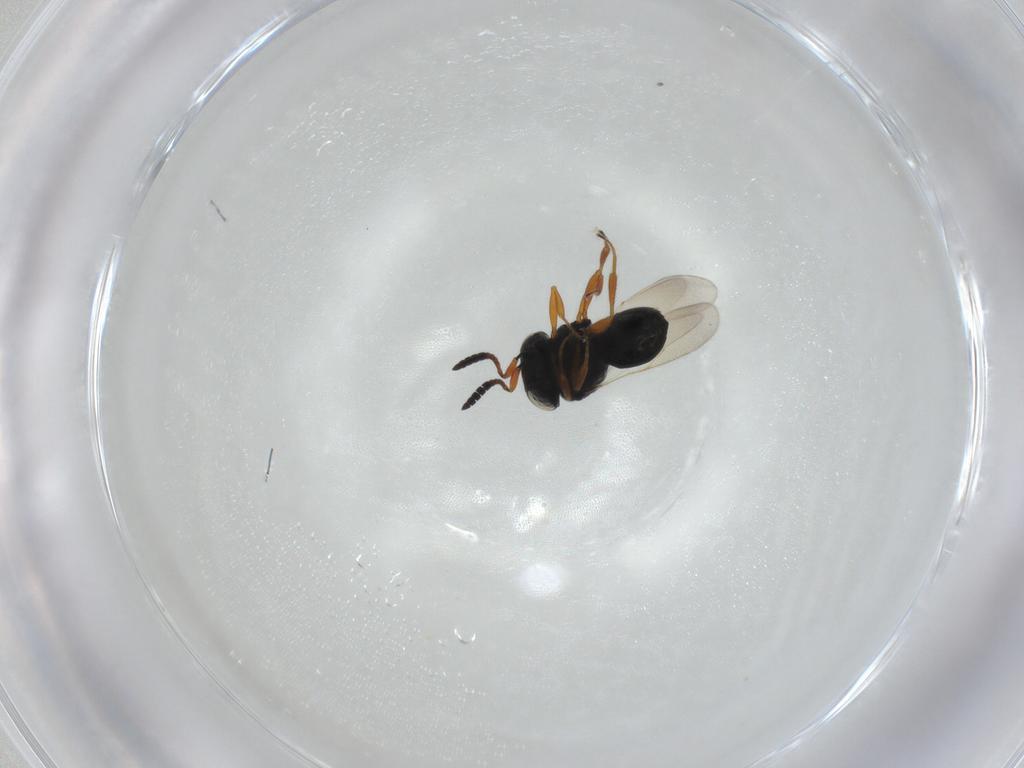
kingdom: Animalia
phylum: Arthropoda
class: Insecta
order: Hymenoptera
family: Scelionidae
